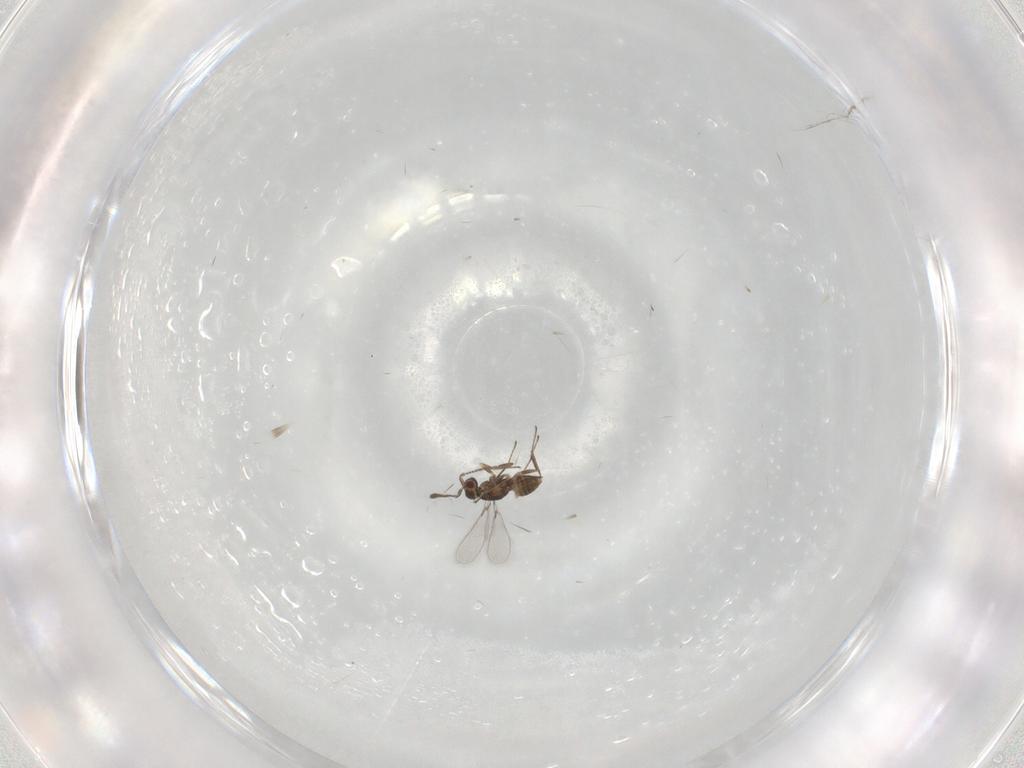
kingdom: Animalia
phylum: Arthropoda
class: Insecta
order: Hymenoptera
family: Mymaridae
